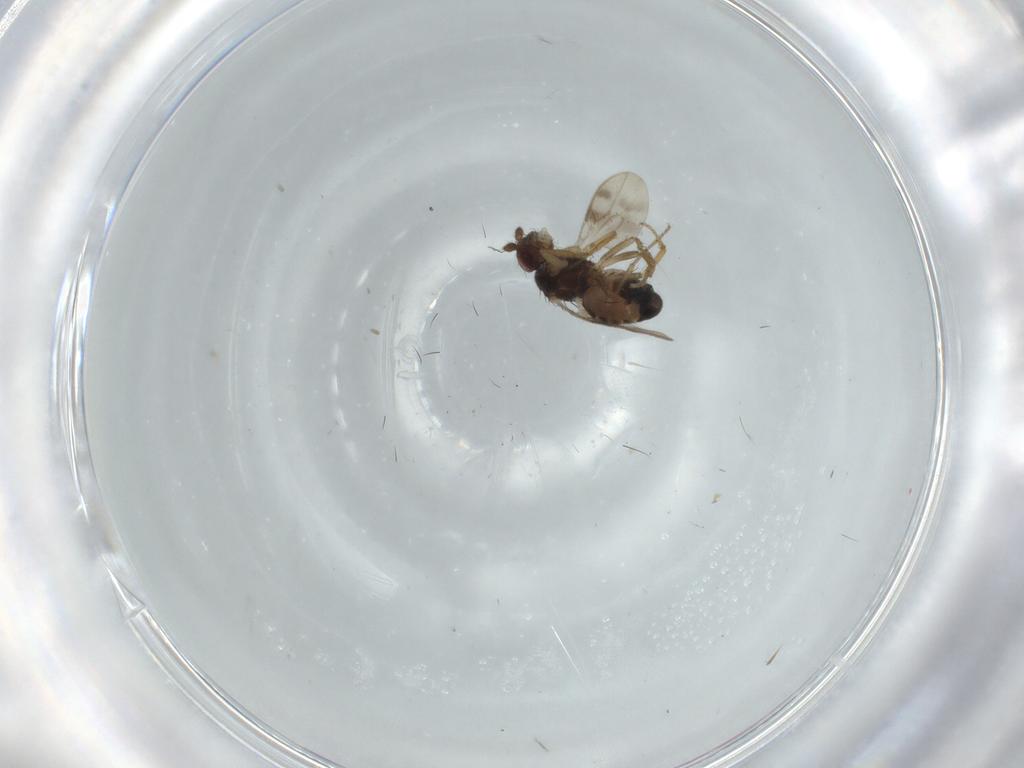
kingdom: Animalia
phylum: Arthropoda
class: Insecta
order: Diptera
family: Sphaeroceridae
